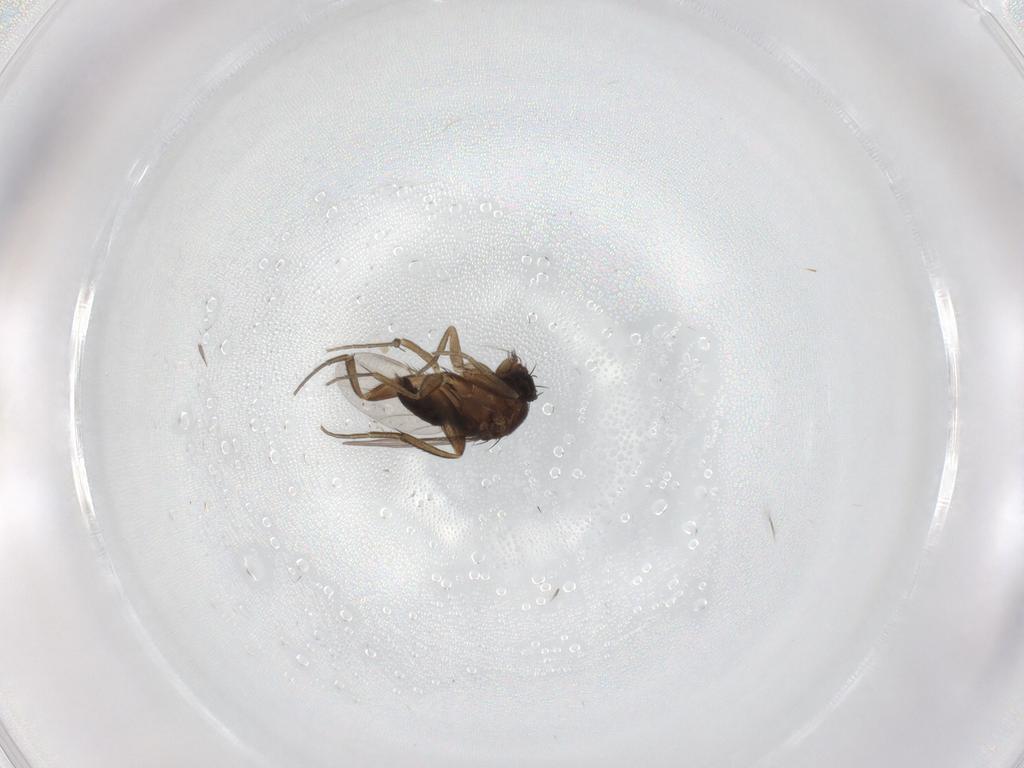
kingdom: Animalia
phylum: Arthropoda
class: Insecta
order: Diptera
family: Phoridae
